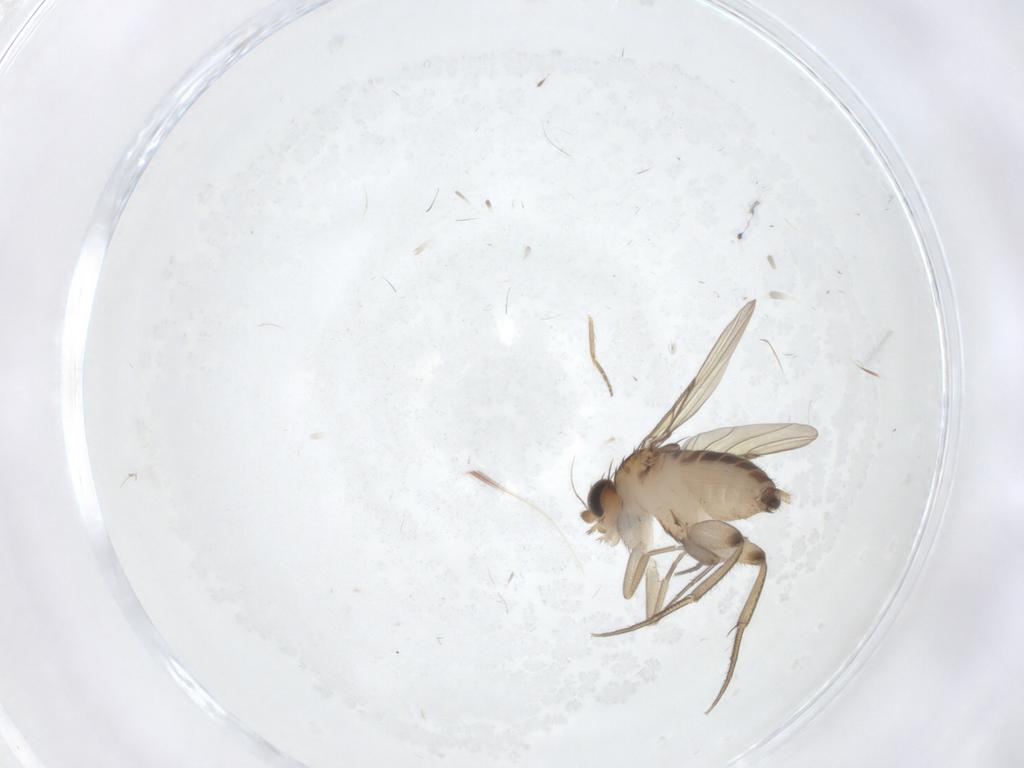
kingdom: Animalia
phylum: Arthropoda
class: Insecta
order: Diptera
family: Phoridae
